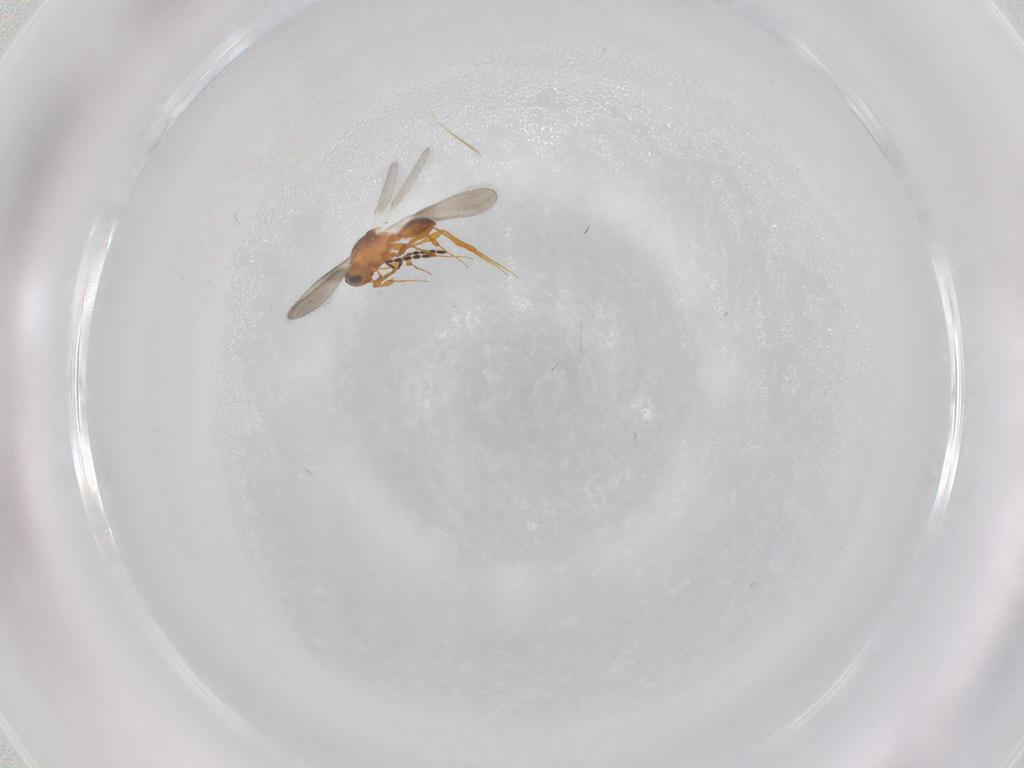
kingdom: Animalia
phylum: Arthropoda
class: Insecta
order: Hymenoptera
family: Platygastridae
